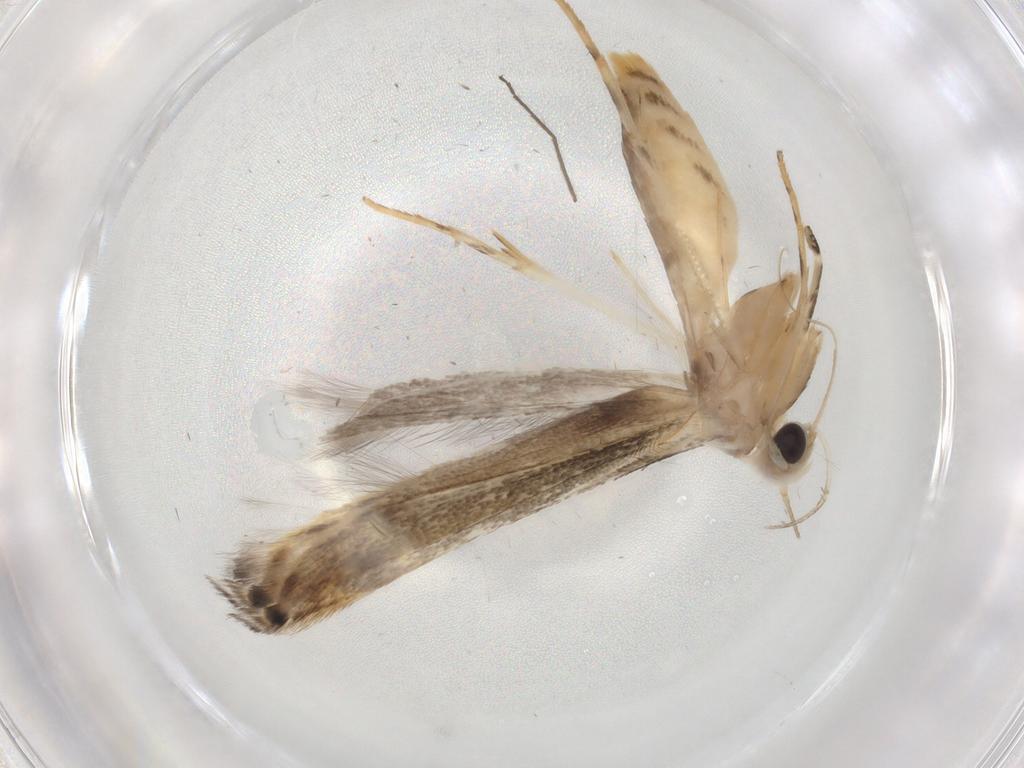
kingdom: Animalia
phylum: Arthropoda
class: Insecta
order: Lepidoptera
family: Gelechiidae
